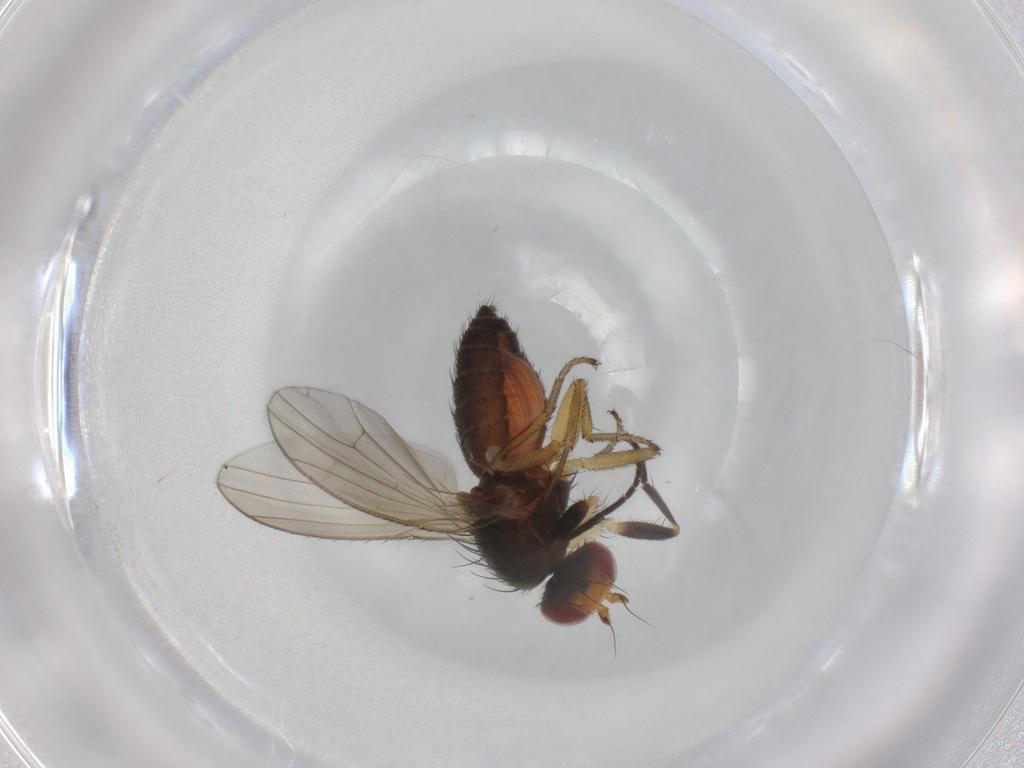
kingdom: Animalia
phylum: Arthropoda
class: Insecta
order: Diptera
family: Heleomyzidae
